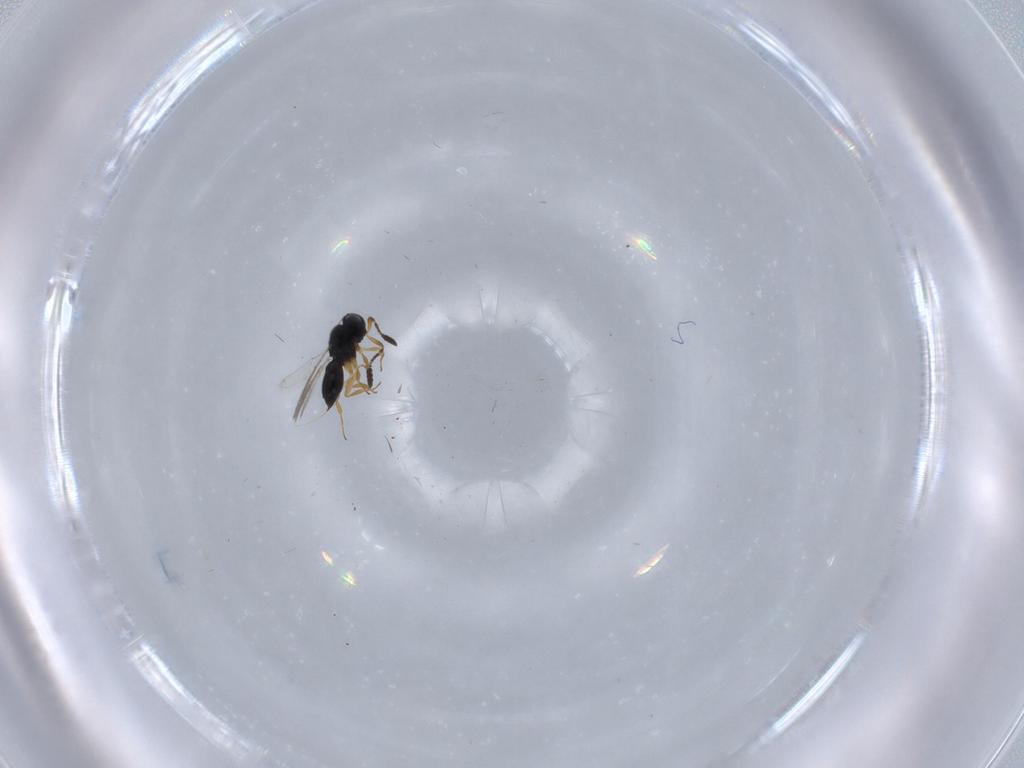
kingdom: Animalia
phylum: Arthropoda
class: Insecta
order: Hymenoptera
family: Scelionidae
